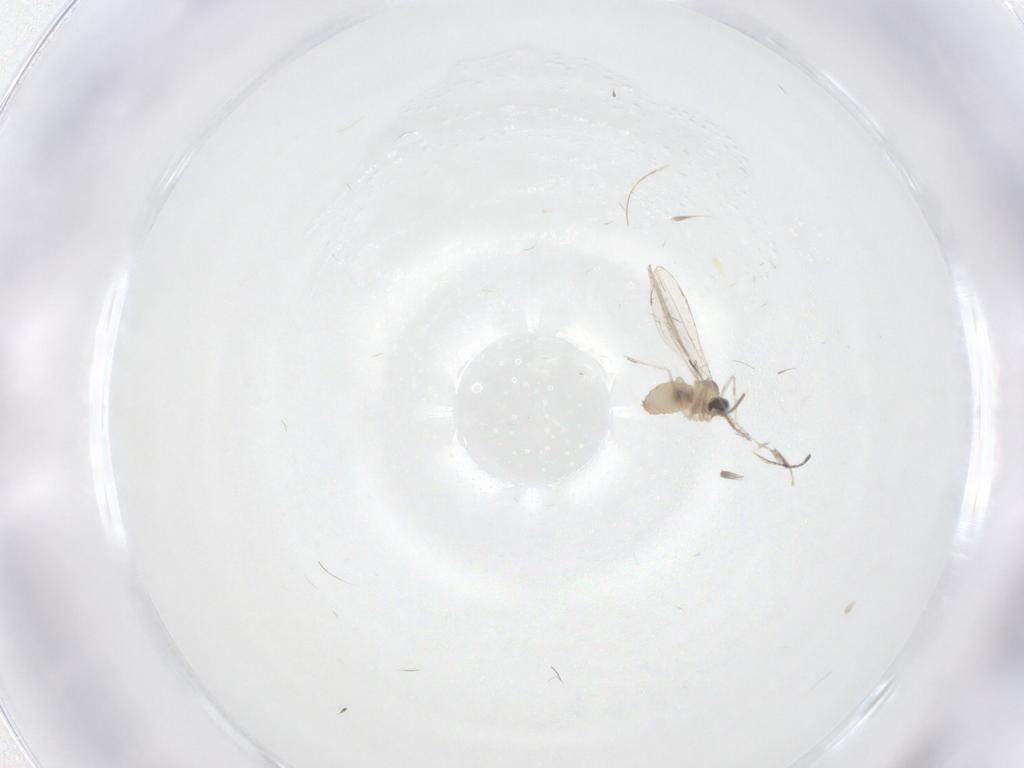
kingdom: Animalia
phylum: Arthropoda
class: Insecta
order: Diptera
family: Cecidomyiidae
